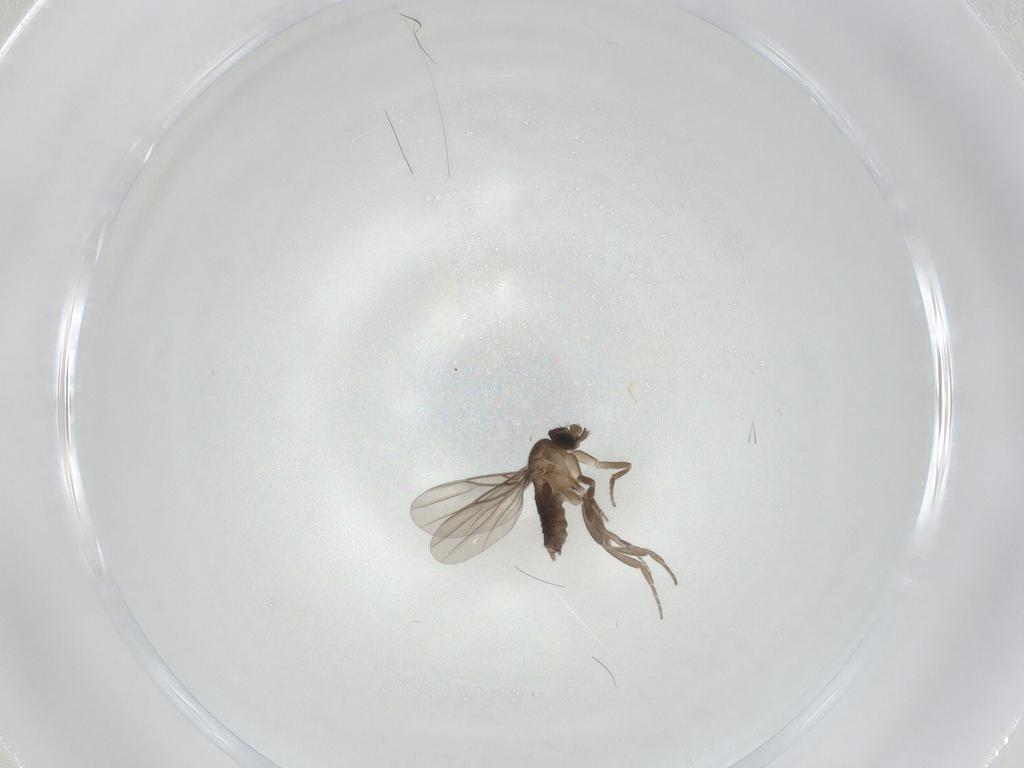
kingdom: Animalia
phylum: Arthropoda
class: Insecta
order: Diptera
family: Phoridae
